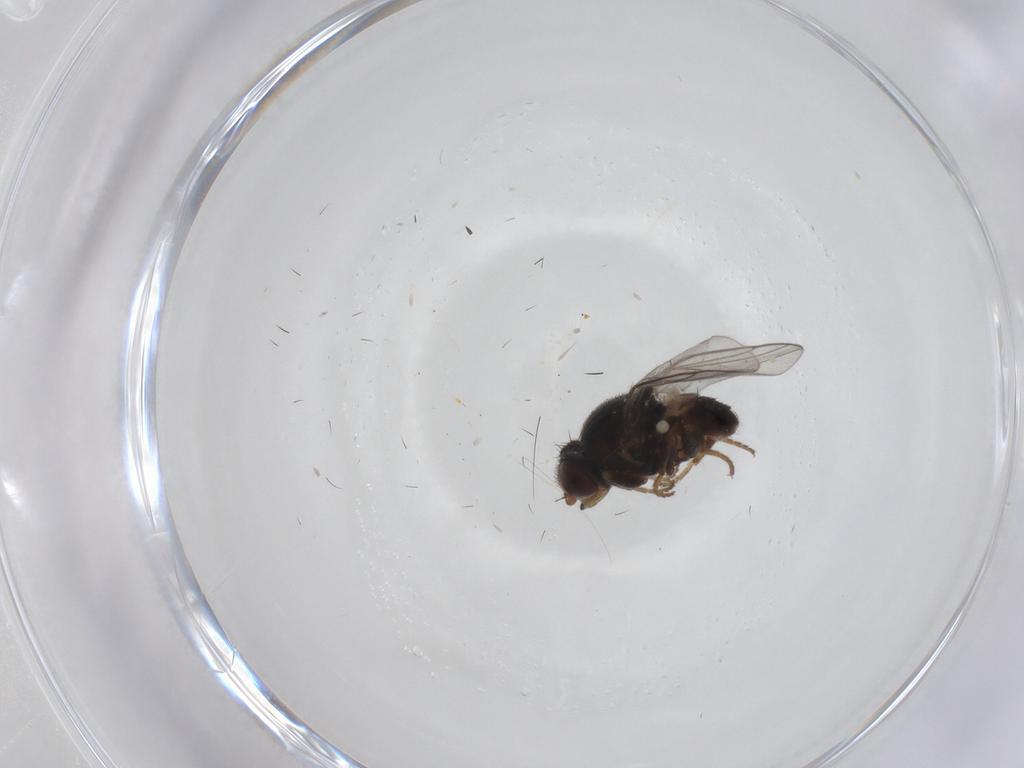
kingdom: Animalia
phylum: Arthropoda
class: Insecta
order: Diptera
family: Chloropidae
